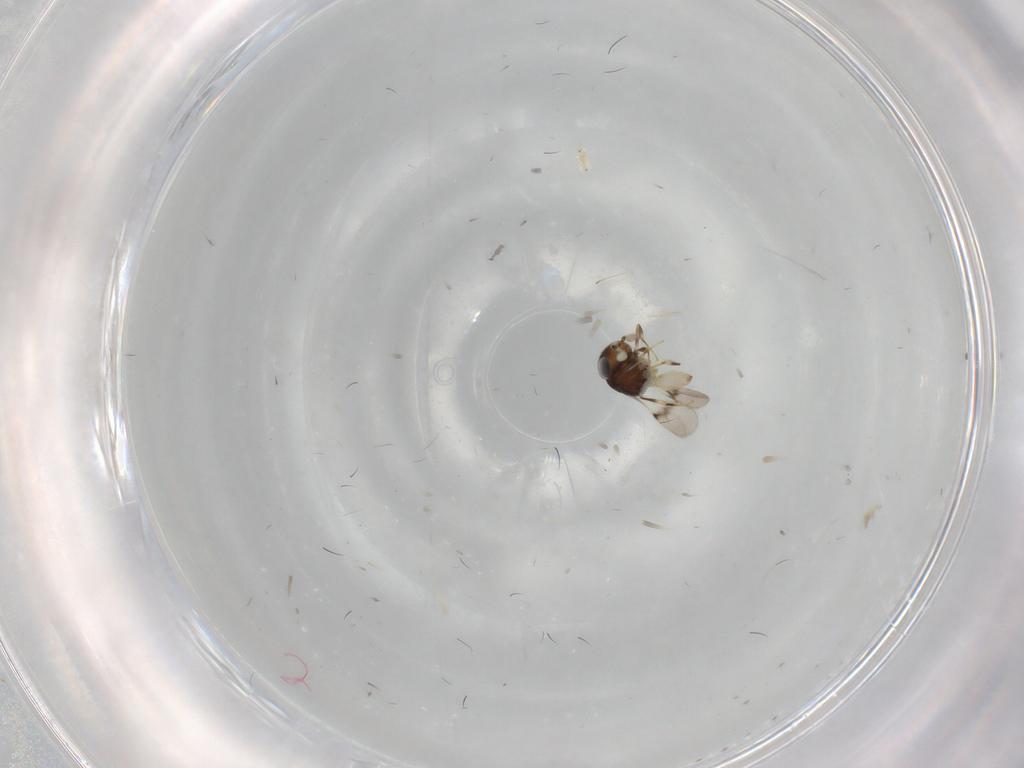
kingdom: Animalia
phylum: Arthropoda
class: Insecta
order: Hymenoptera
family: Scelionidae
